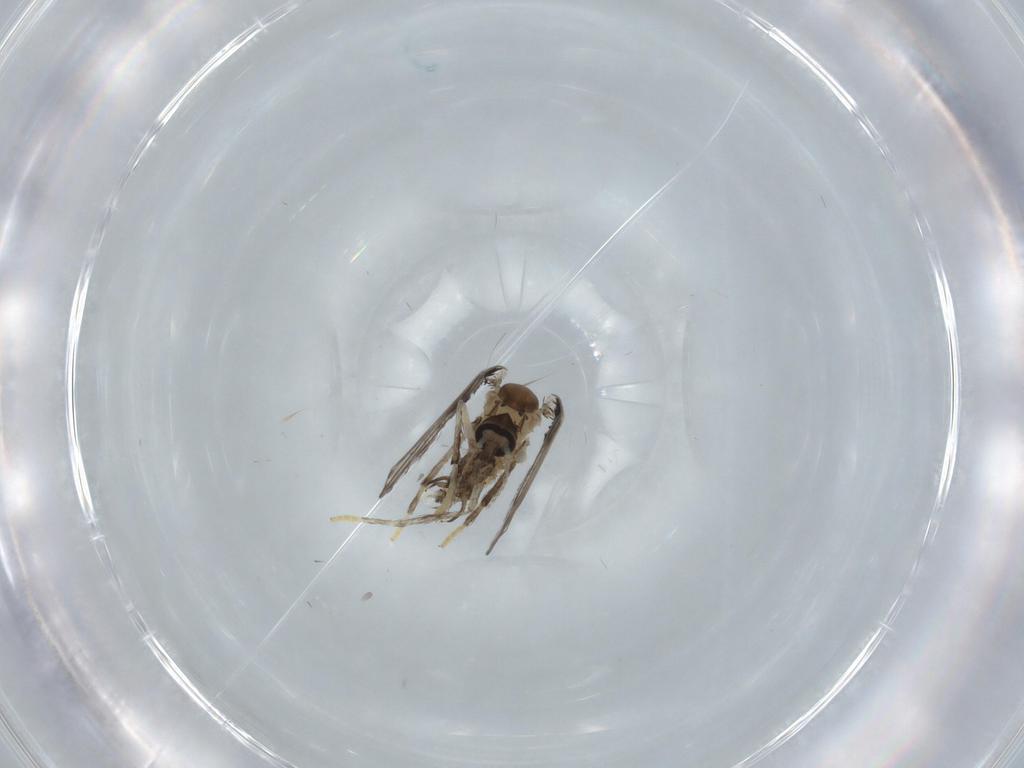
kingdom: Animalia
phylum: Arthropoda
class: Insecta
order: Diptera
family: Psychodidae
